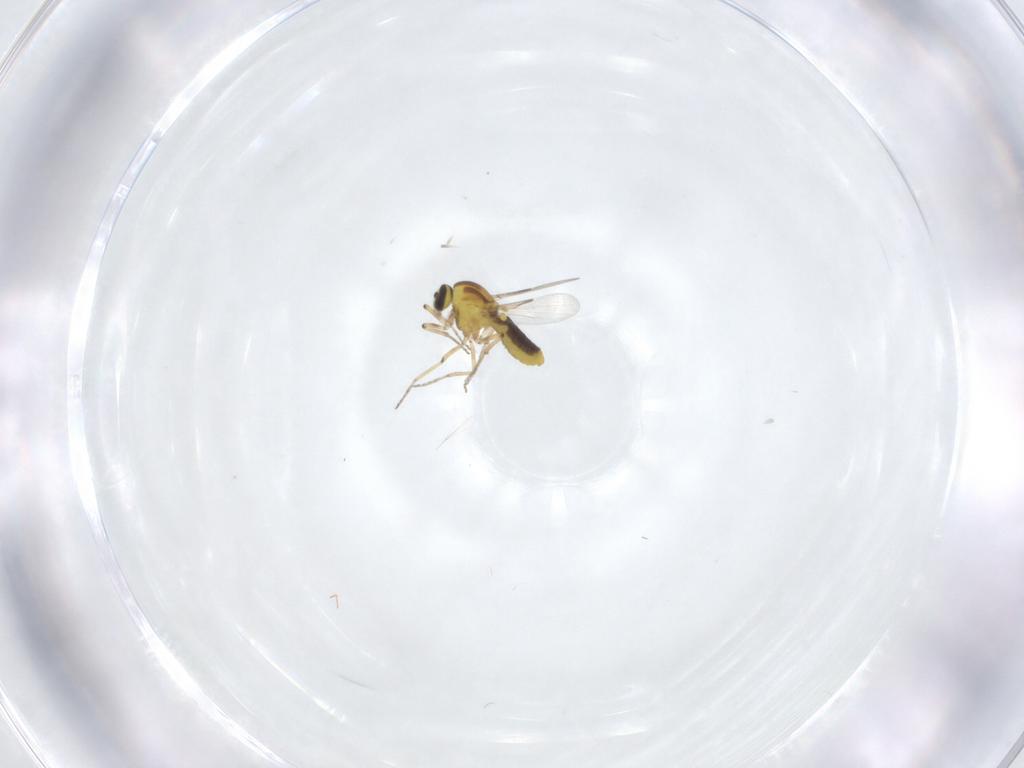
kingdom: Animalia
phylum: Arthropoda
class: Insecta
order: Diptera
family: Ceratopogonidae
